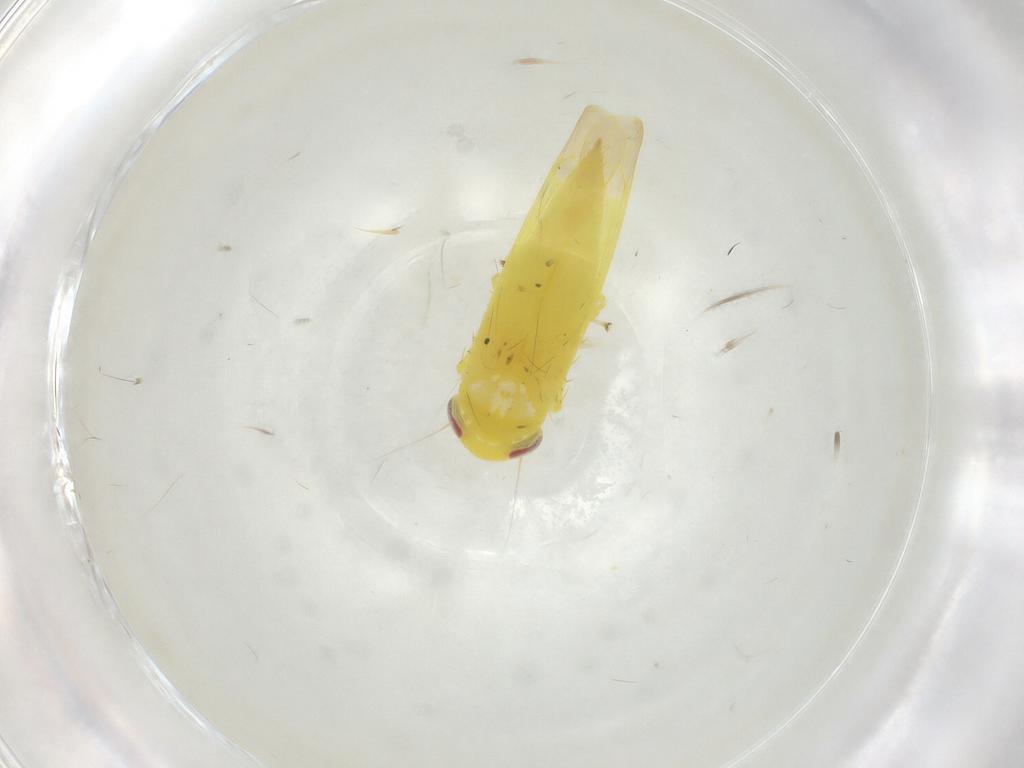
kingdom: Animalia
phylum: Arthropoda
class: Insecta
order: Hemiptera
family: Cicadellidae
